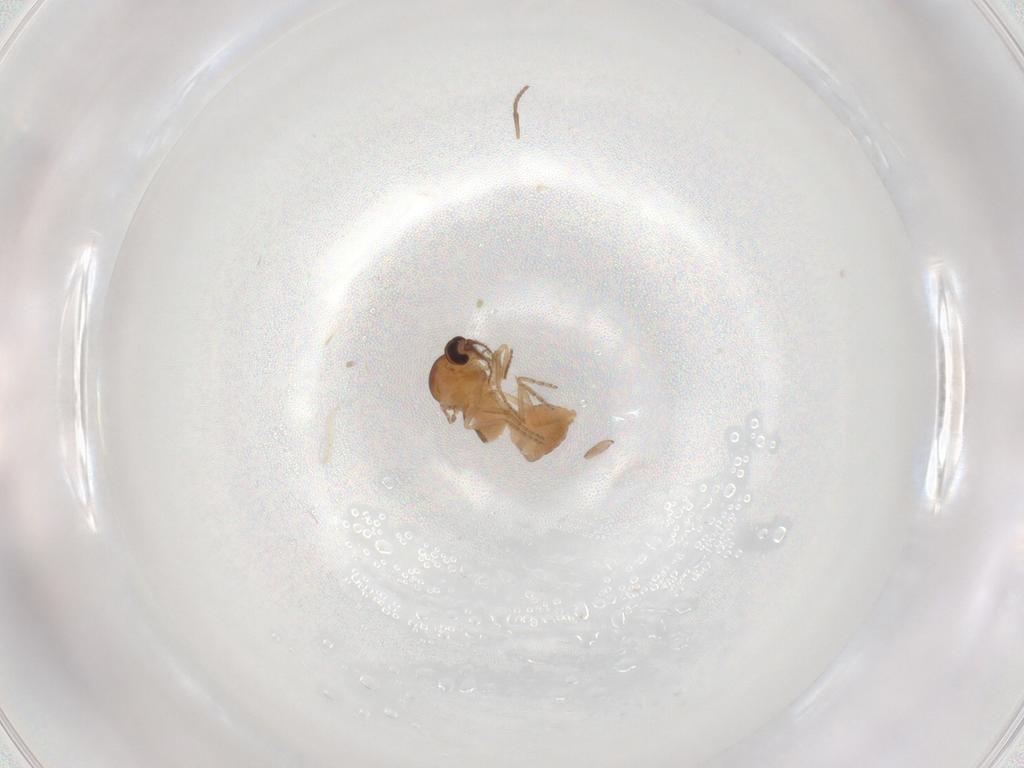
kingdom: Animalia
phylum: Arthropoda
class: Insecta
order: Diptera
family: Ceratopogonidae
